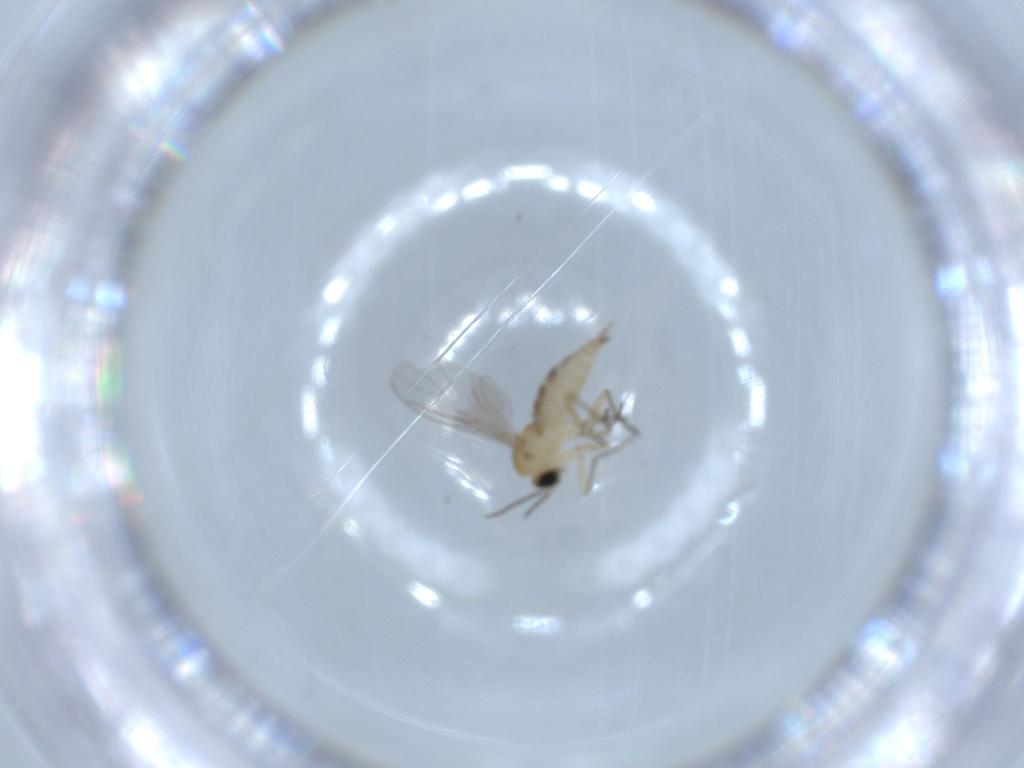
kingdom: Animalia
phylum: Arthropoda
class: Insecta
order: Diptera
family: Sciaridae
